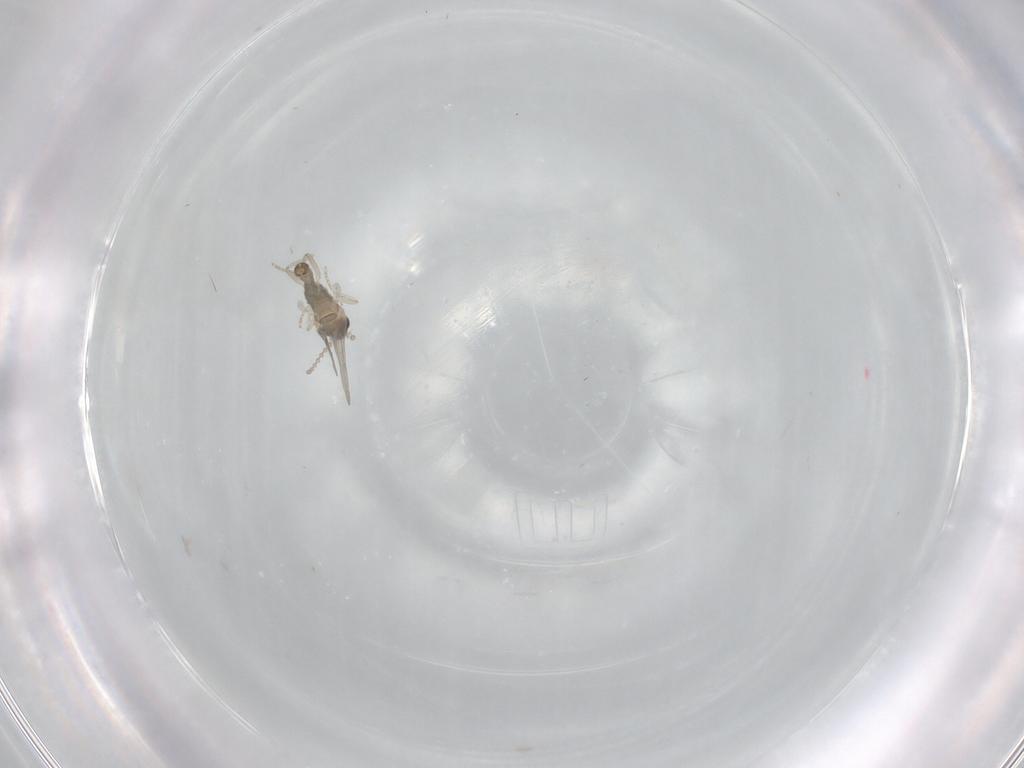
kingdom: Animalia
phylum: Arthropoda
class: Insecta
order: Diptera
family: Cecidomyiidae
